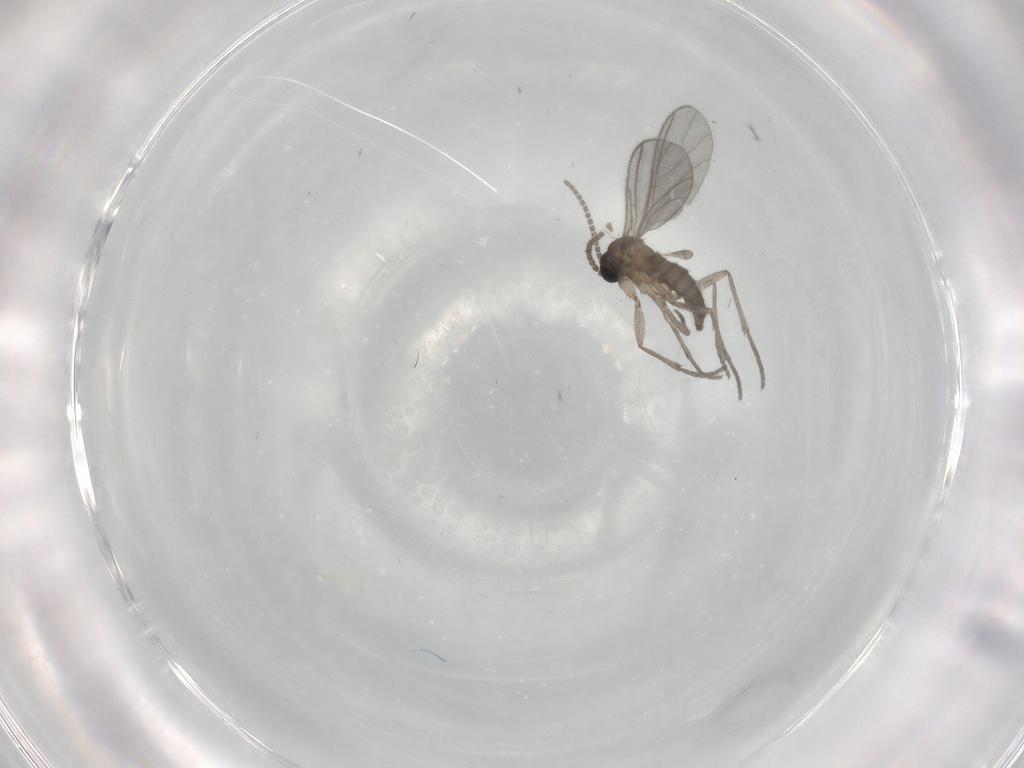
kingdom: Animalia
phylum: Arthropoda
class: Insecta
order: Diptera
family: Sciaridae
